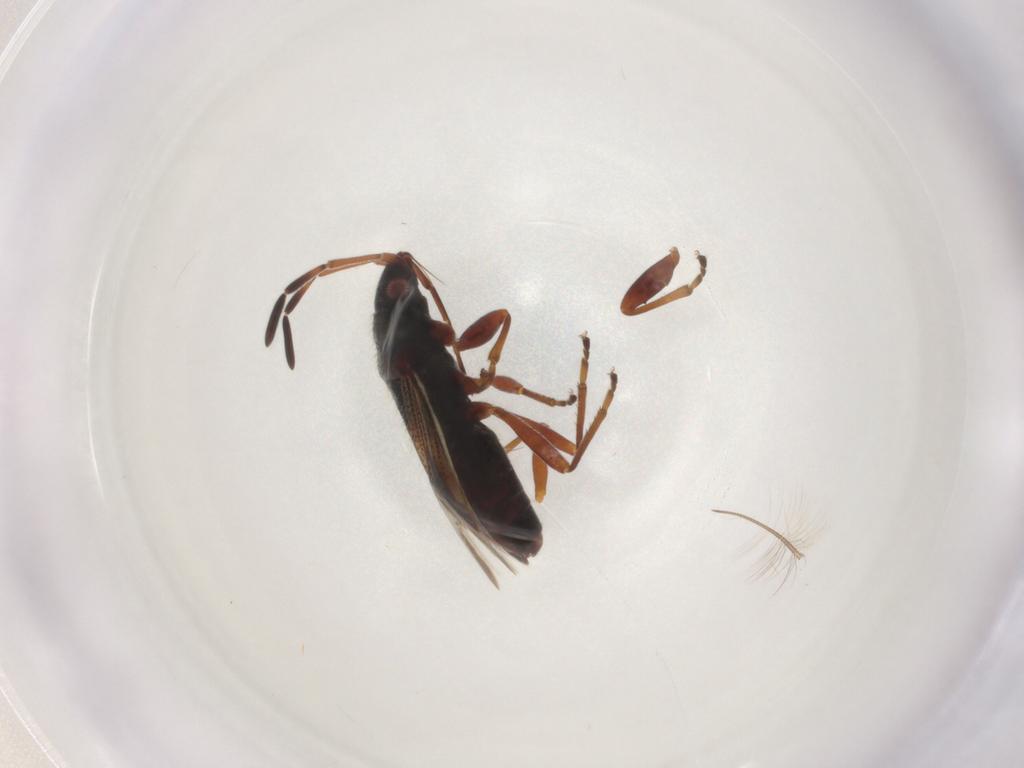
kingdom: Animalia
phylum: Arthropoda
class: Insecta
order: Hemiptera
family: Rhyparochromidae
